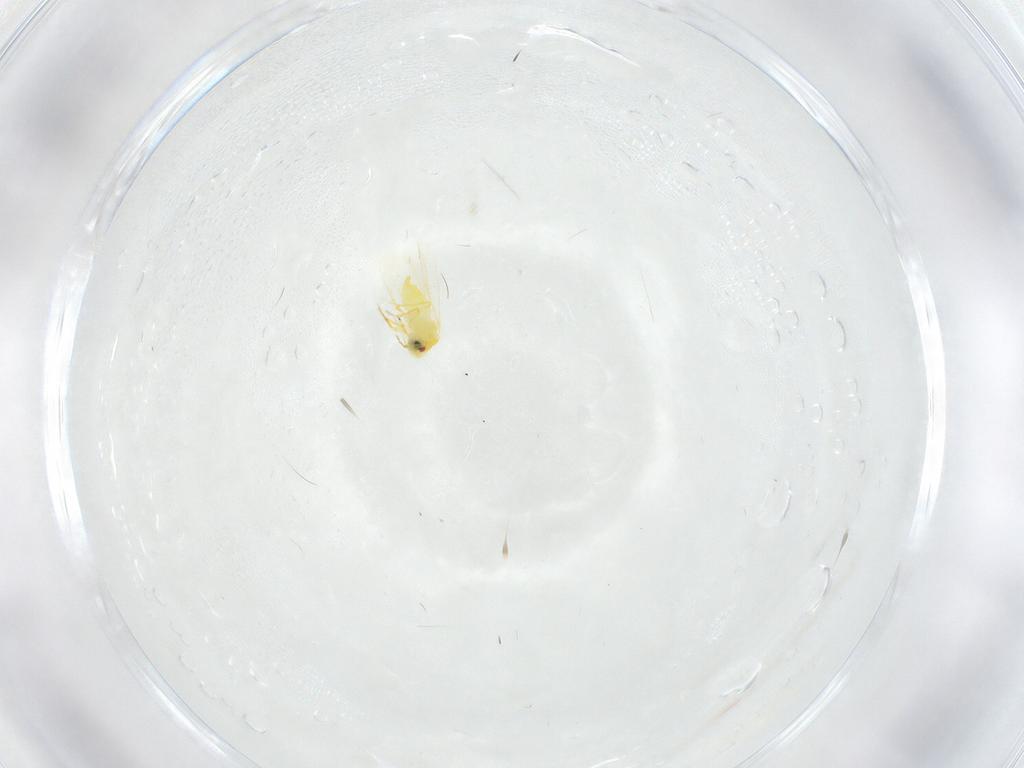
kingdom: Animalia
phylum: Arthropoda
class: Insecta
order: Hemiptera
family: Aleyrodidae
